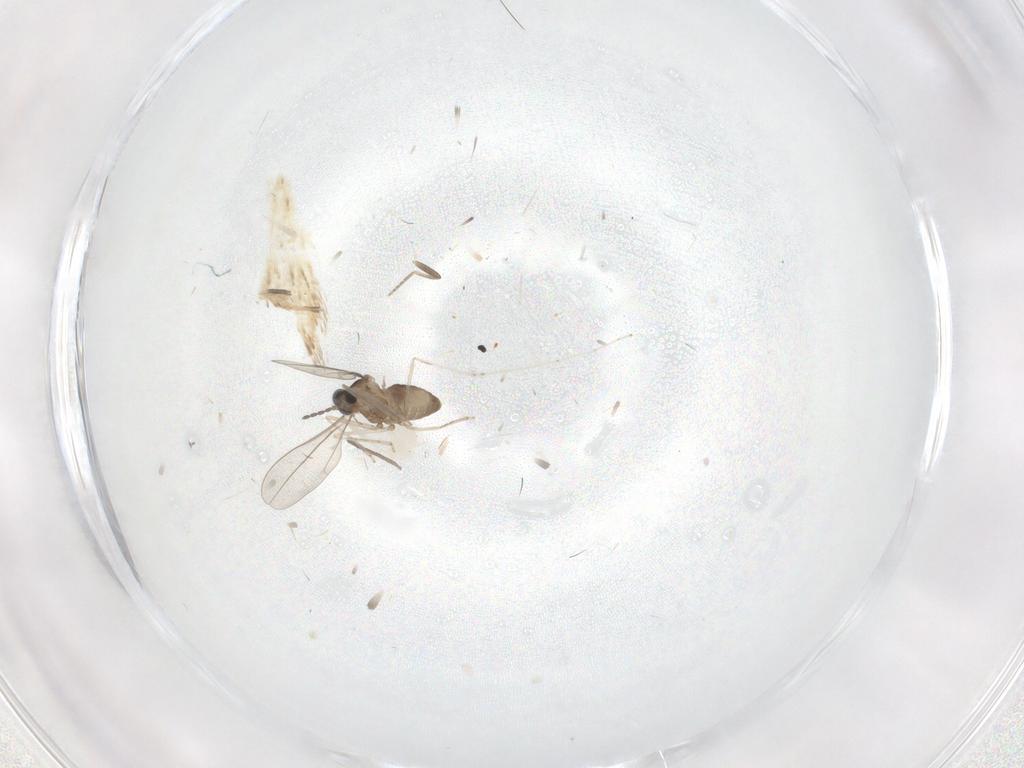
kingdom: Animalia
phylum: Arthropoda
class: Insecta
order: Diptera
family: Cecidomyiidae
